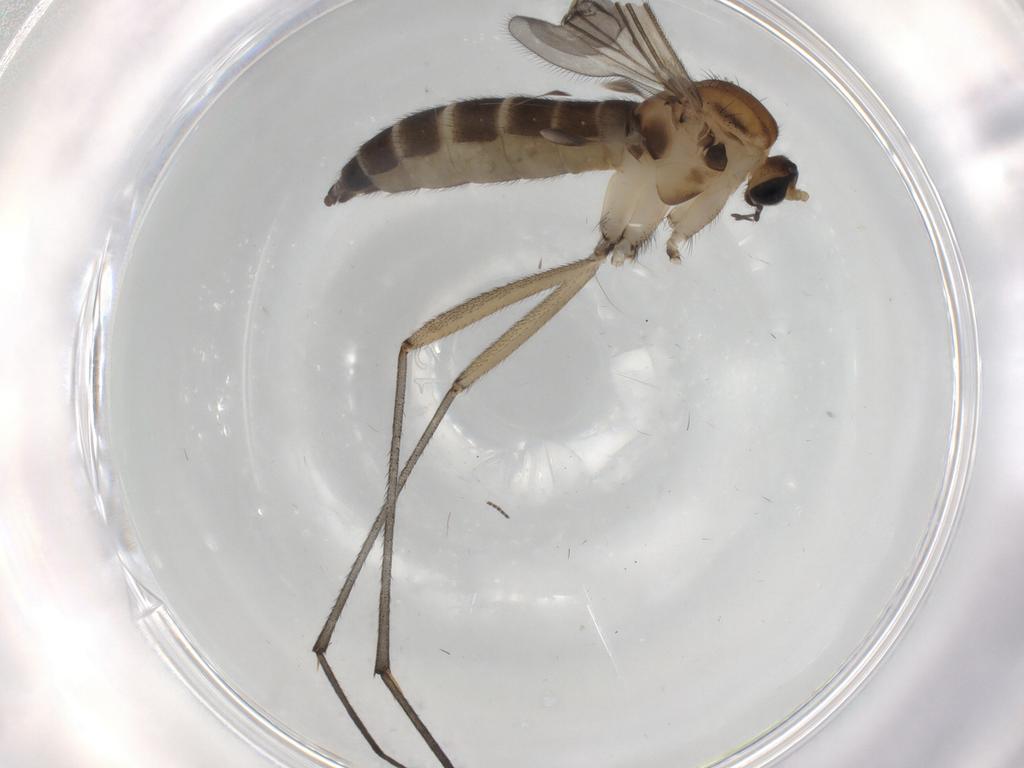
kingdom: Animalia
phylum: Arthropoda
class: Insecta
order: Diptera
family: Sciaridae
